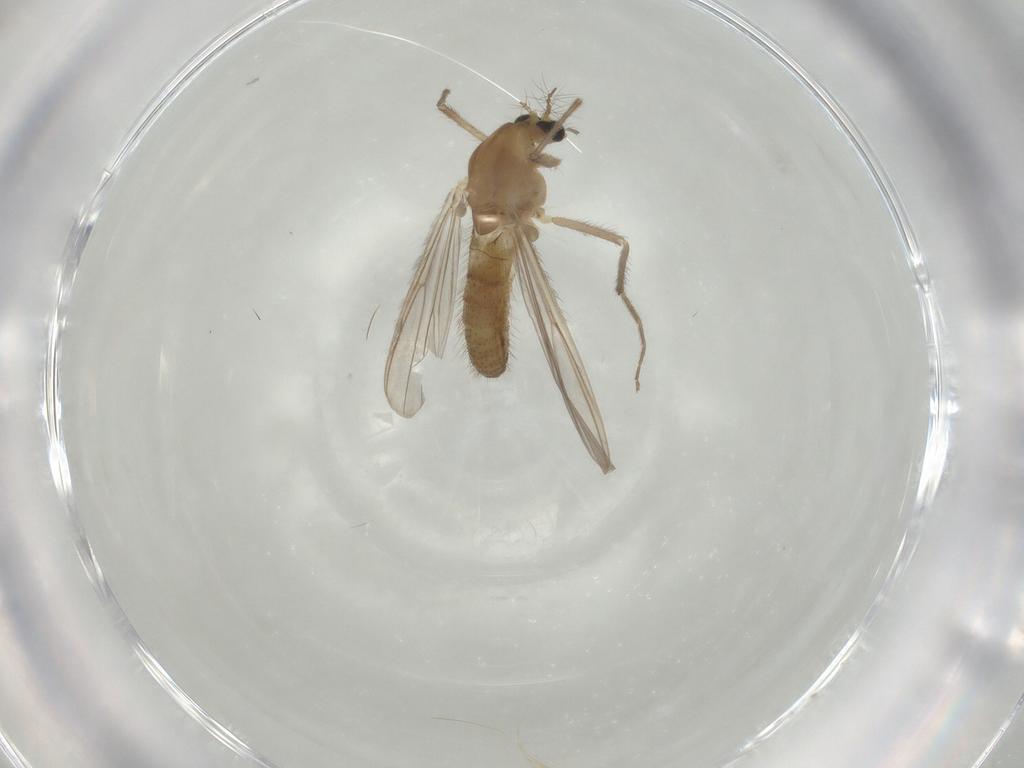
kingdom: Animalia
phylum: Arthropoda
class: Insecta
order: Diptera
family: Chironomidae
